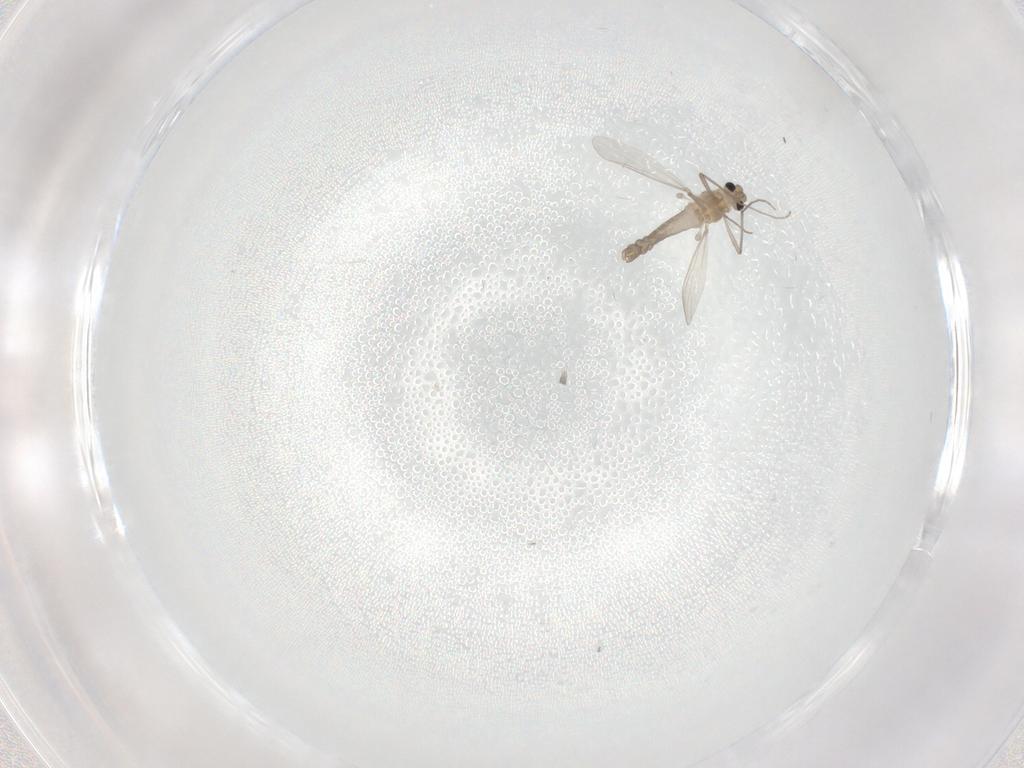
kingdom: Animalia
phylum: Arthropoda
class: Insecta
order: Diptera
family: Chironomidae
